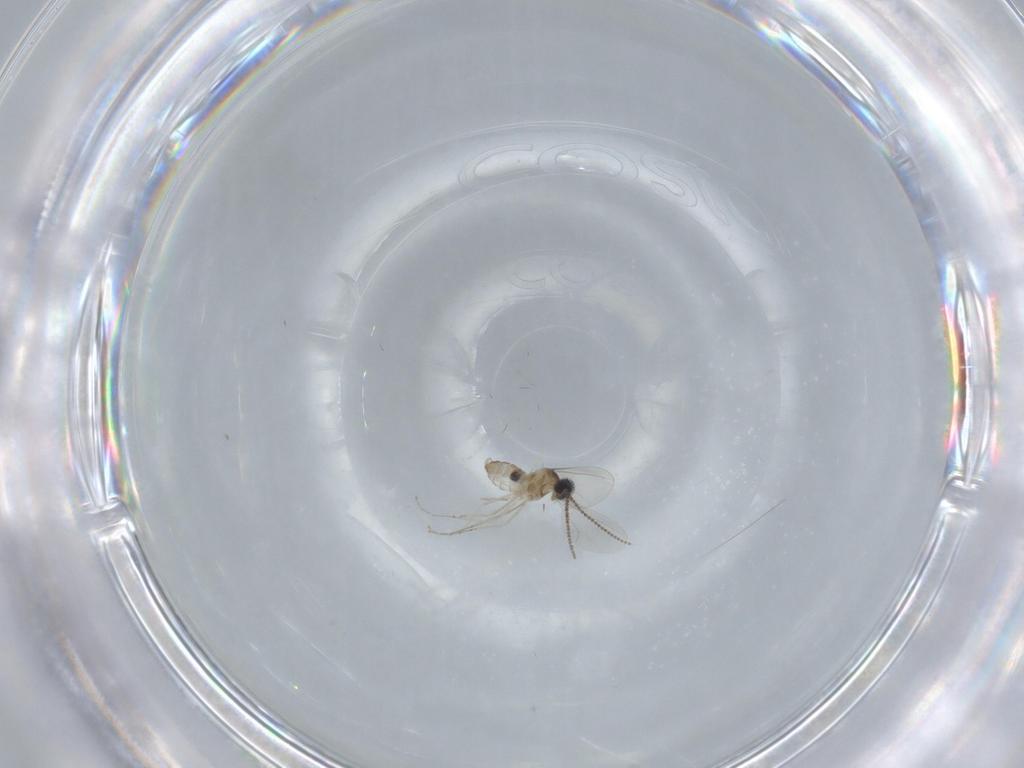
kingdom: Animalia
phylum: Arthropoda
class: Insecta
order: Diptera
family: Cecidomyiidae
